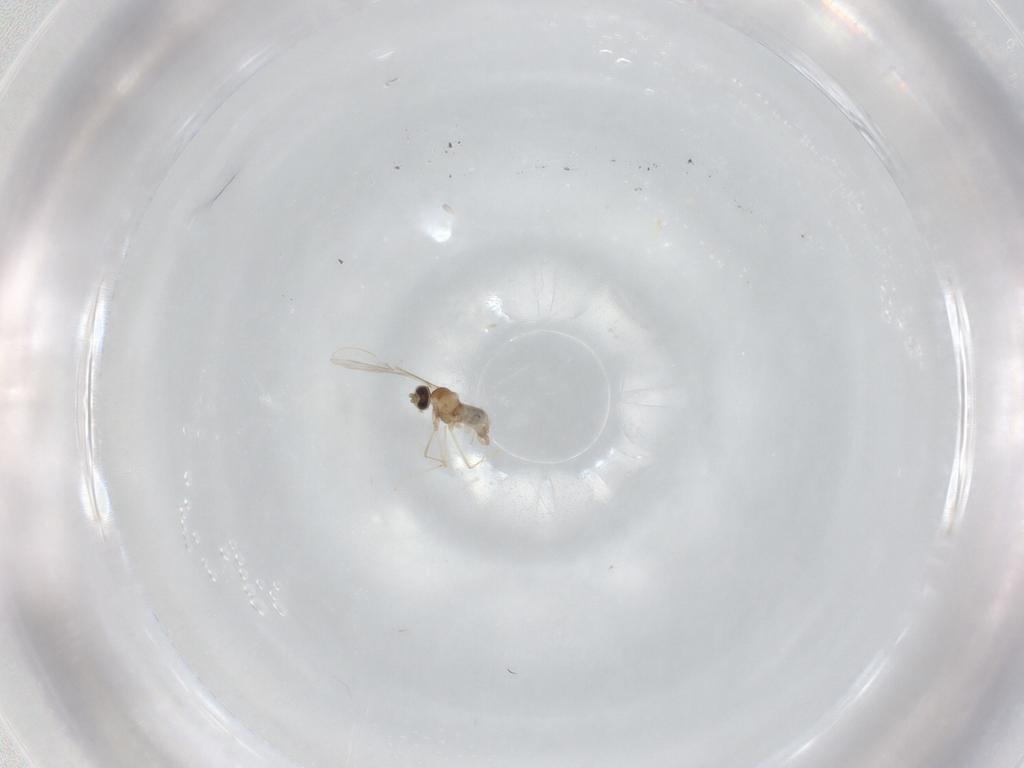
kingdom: Animalia
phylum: Arthropoda
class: Insecta
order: Diptera
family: Cecidomyiidae
